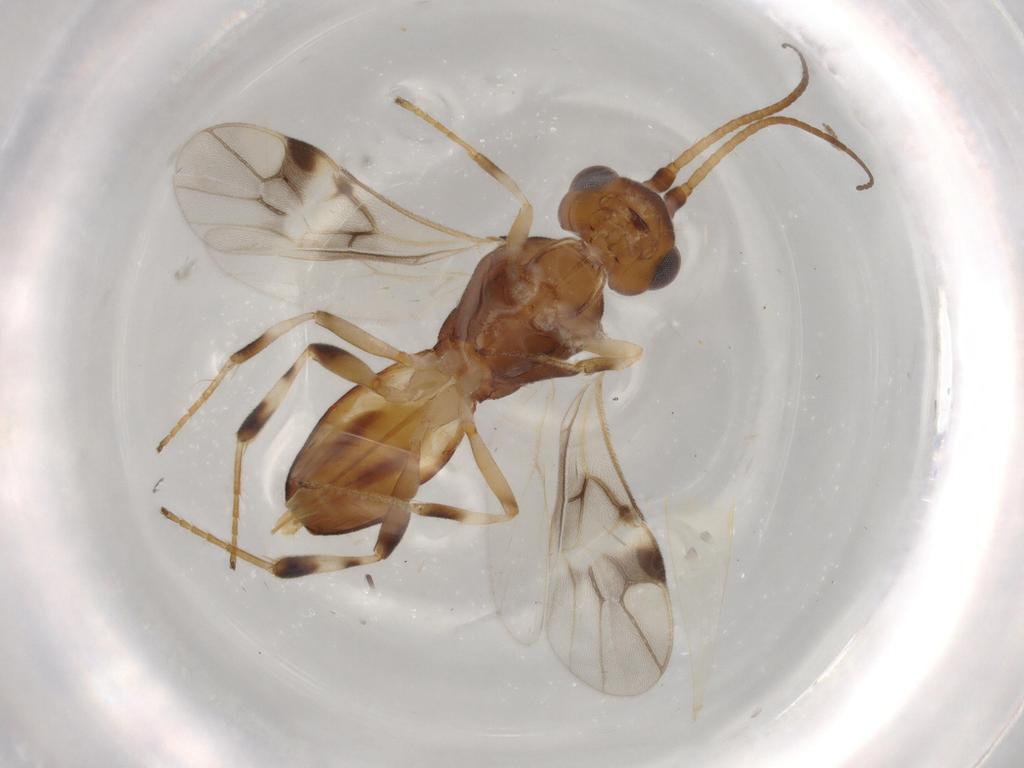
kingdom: Animalia
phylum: Arthropoda
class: Insecta
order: Hymenoptera
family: Braconidae
